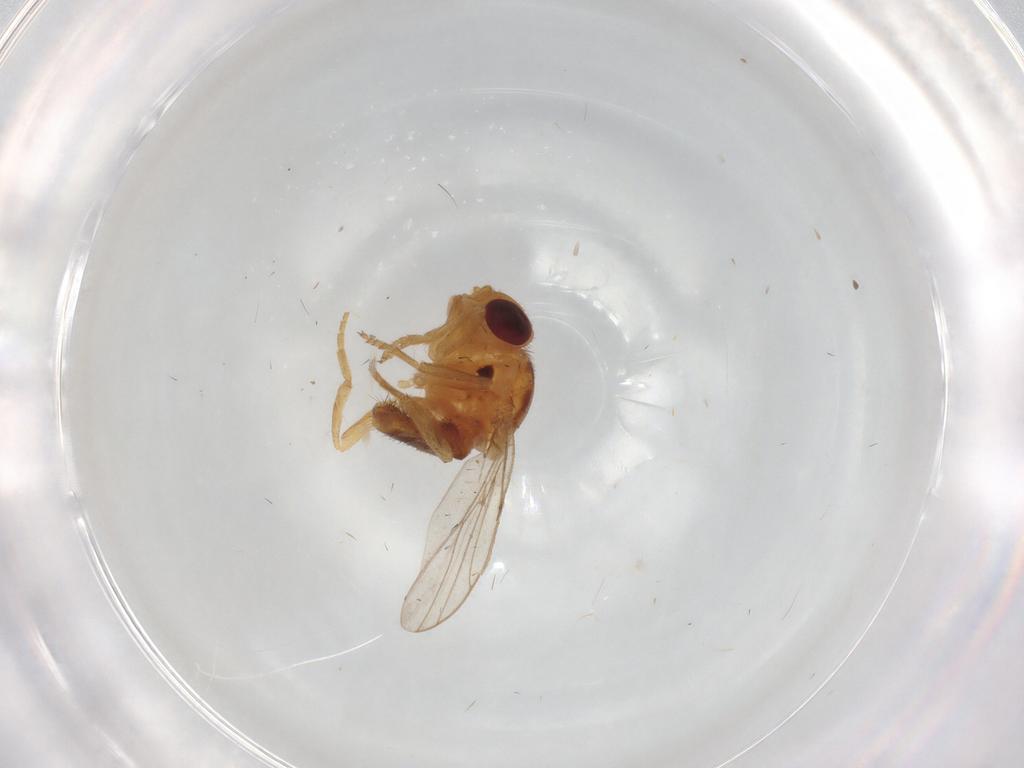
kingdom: Animalia
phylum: Arthropoda
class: Insecta
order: Diptera
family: Chloropidae
